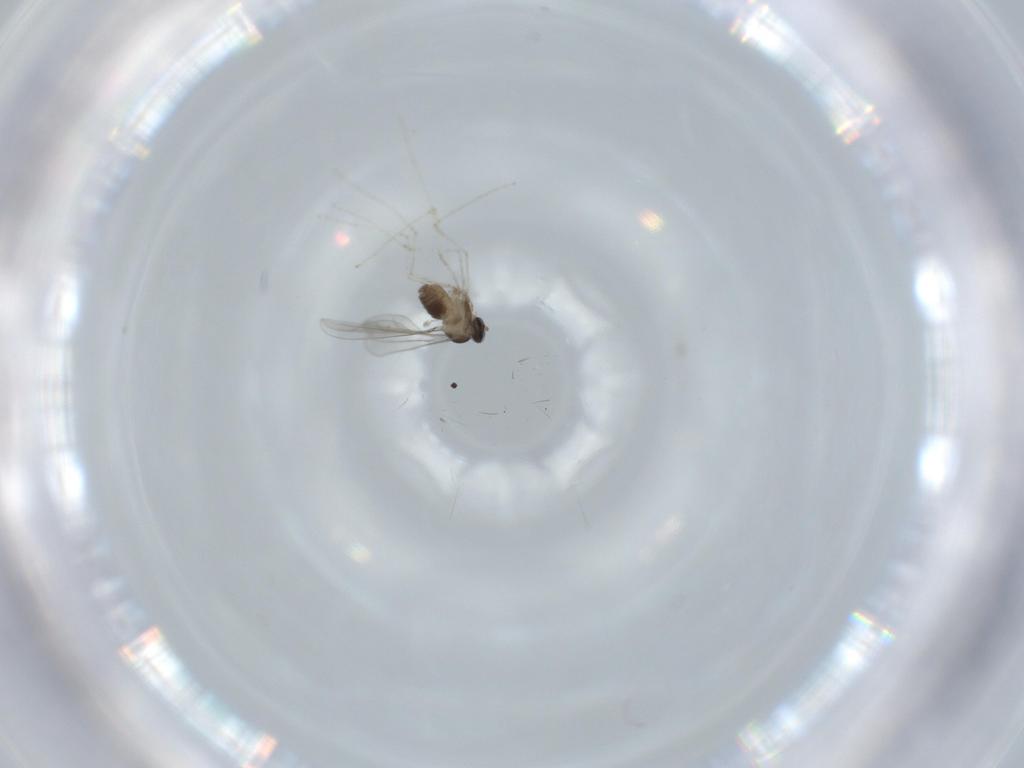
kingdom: Animalia
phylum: Arthropoda
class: Insecta
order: Diptera
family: Cecidomyiidae
